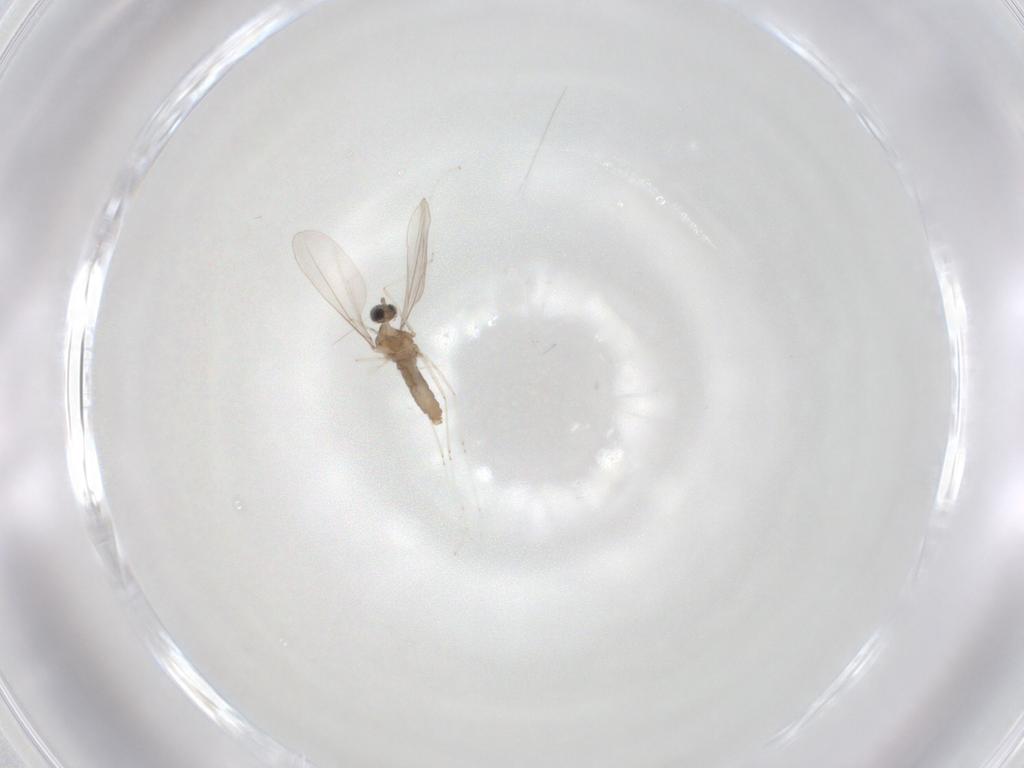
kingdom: Animalia
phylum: Arthropoda
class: Insecta
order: Diptera
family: Cecidomyiidae
